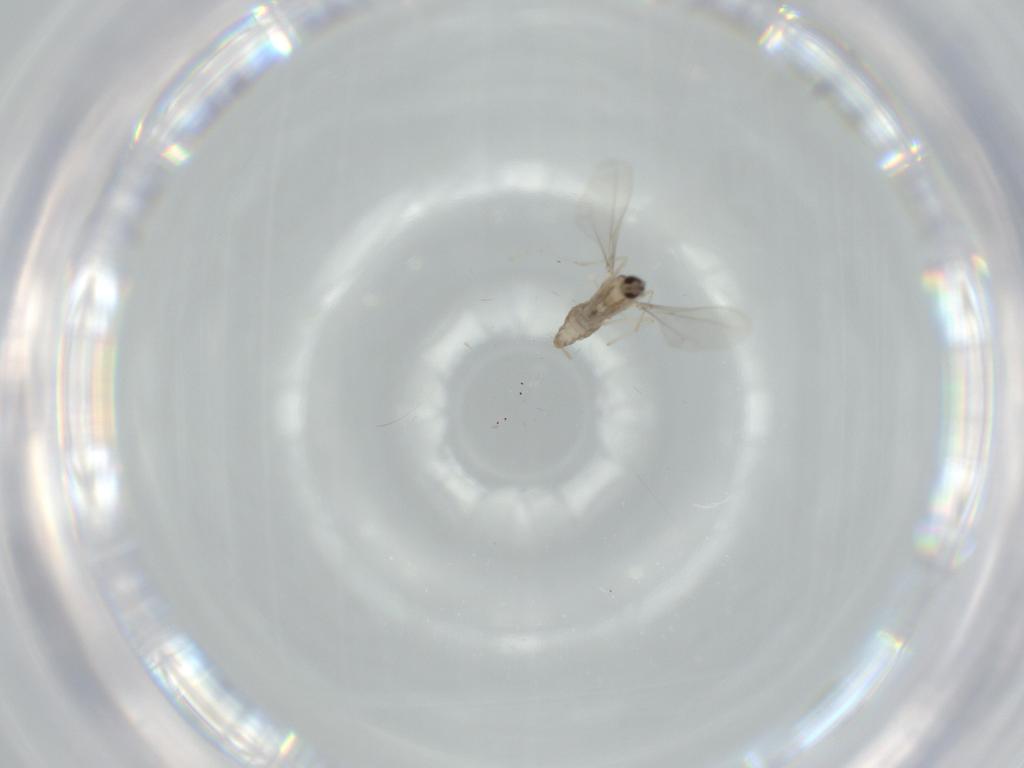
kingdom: Animalia
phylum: Arthropoda
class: Insecta
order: Diptera
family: Cecidomyiidae
